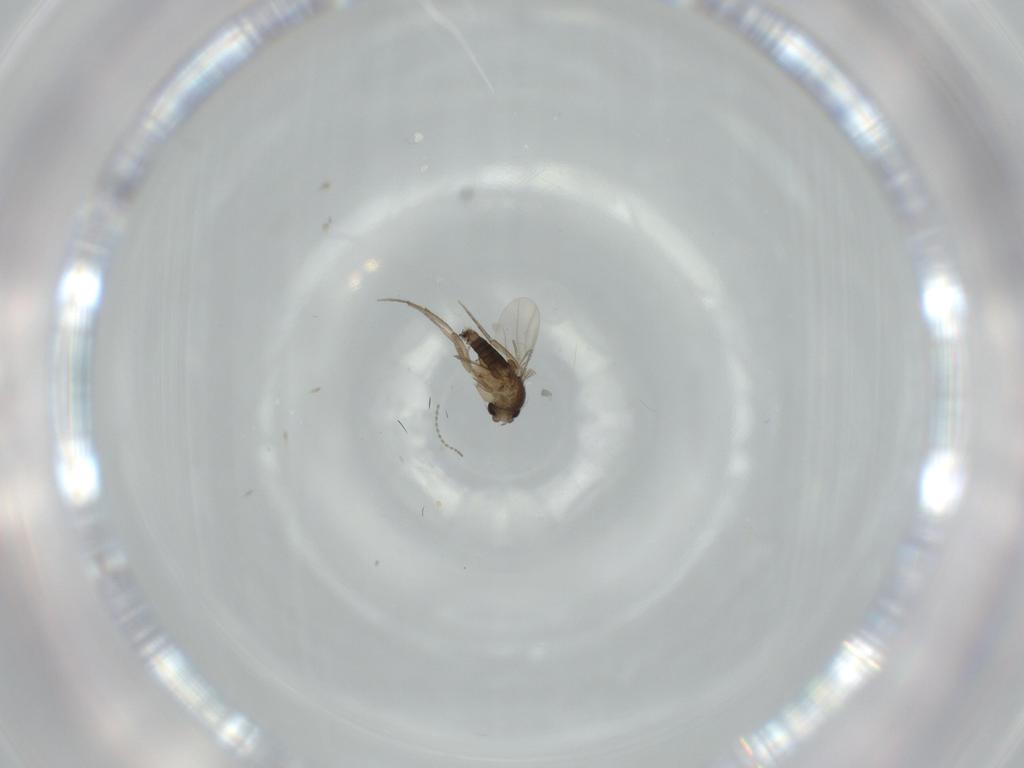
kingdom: Animalia
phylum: Arthropoda
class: Insecta
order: Diptera
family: Phoridae
